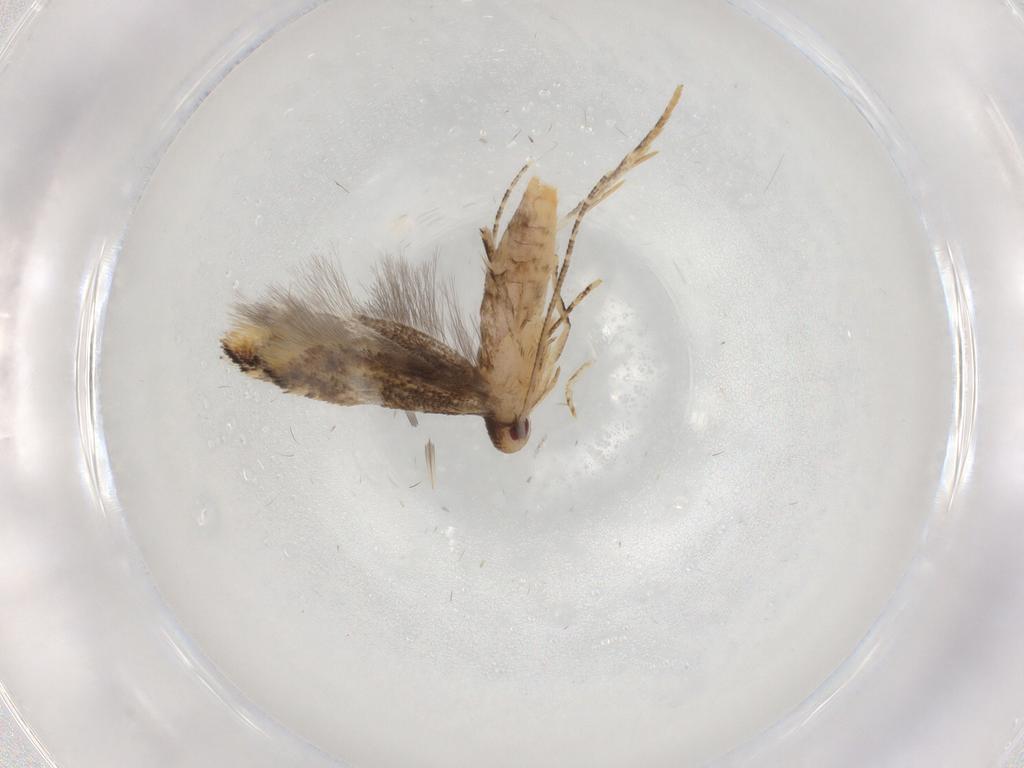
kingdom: Animalia
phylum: Arthropoda
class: Insecta
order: Lepidoptera
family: Momphidae
